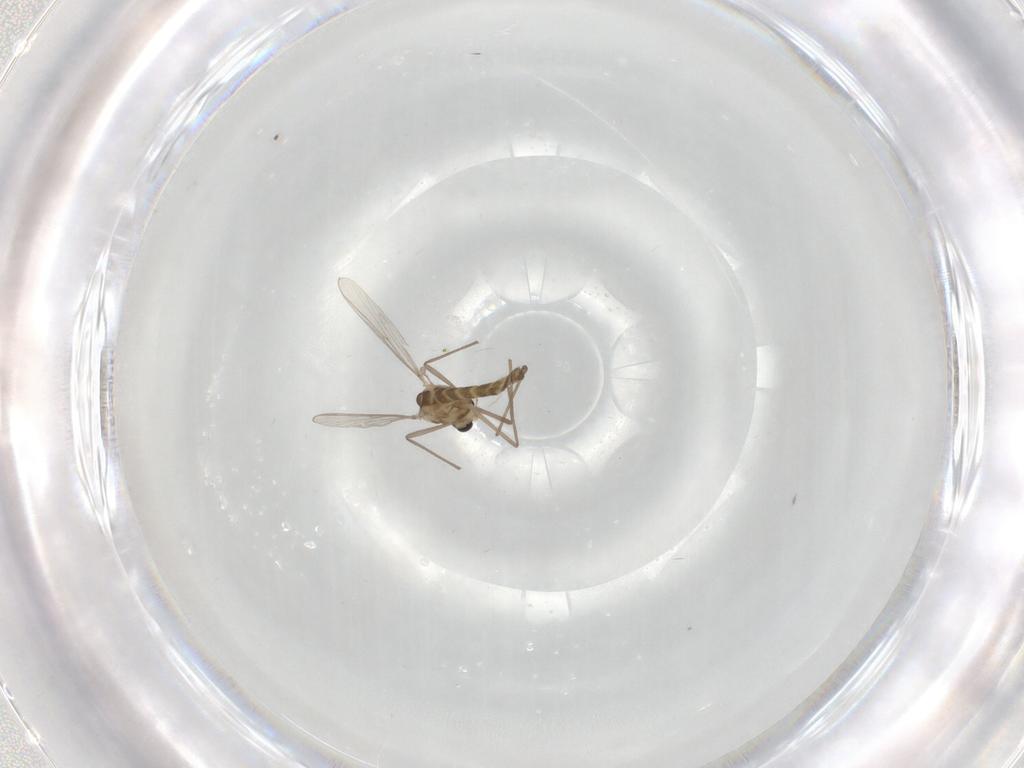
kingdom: Animalia
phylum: Arthropoda
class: Insecta
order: Diptera
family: Chironomidae
